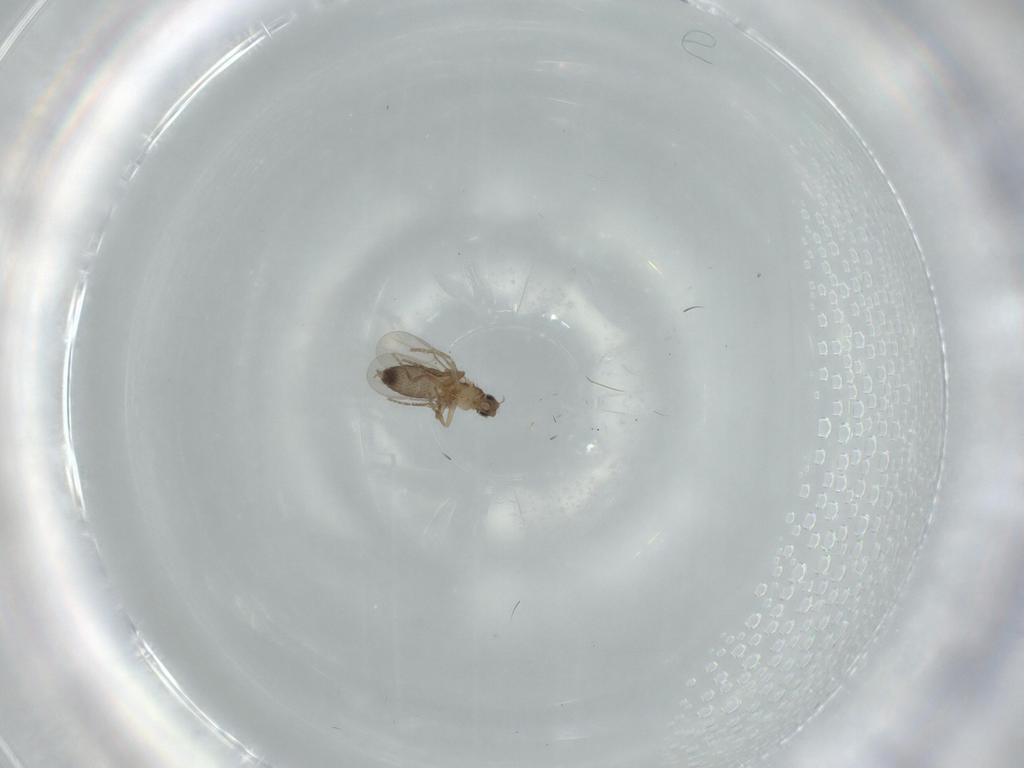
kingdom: Animalia
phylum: Arthropoda
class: Insecta
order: Diptera
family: Phoridae
